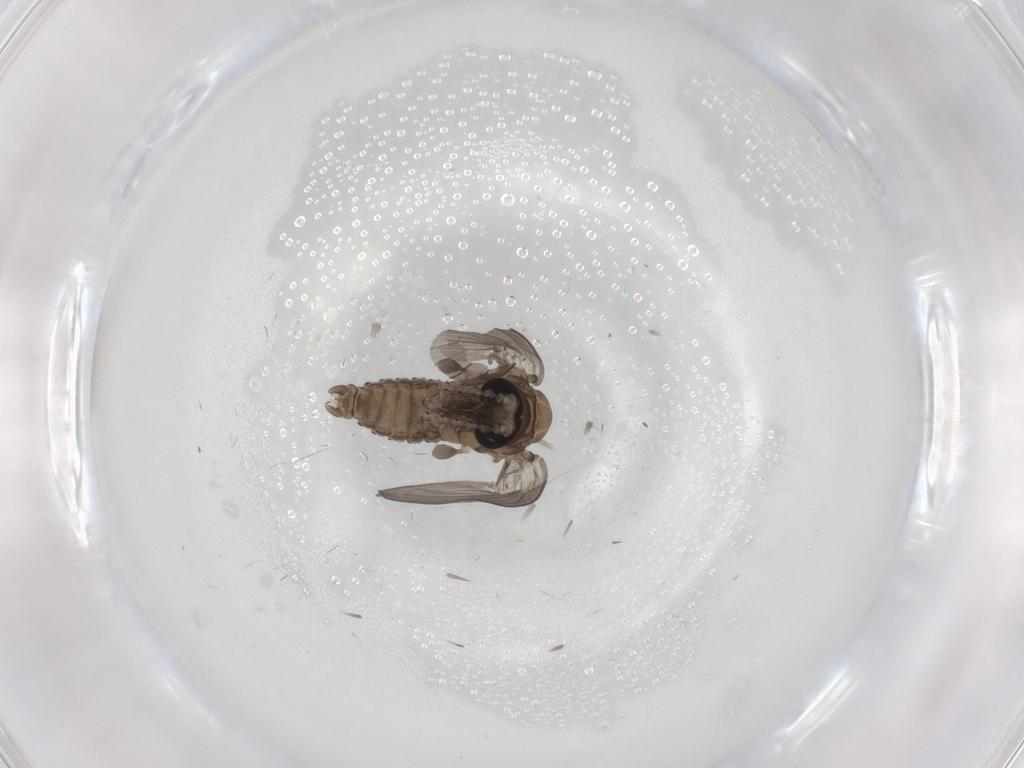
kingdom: Animalia
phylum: Arthropoda
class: Insecta
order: Diptera
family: Psychodidae
